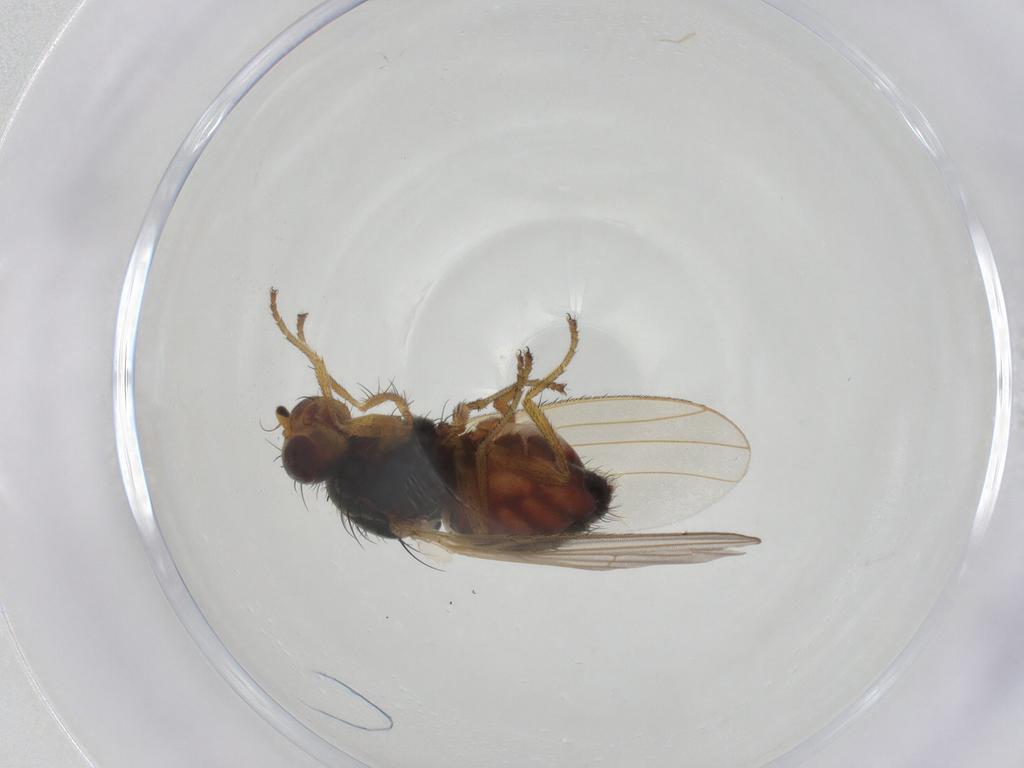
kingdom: Animalia
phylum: Arthropoda
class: Insecta
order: Diptera
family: Heleomyzidae
